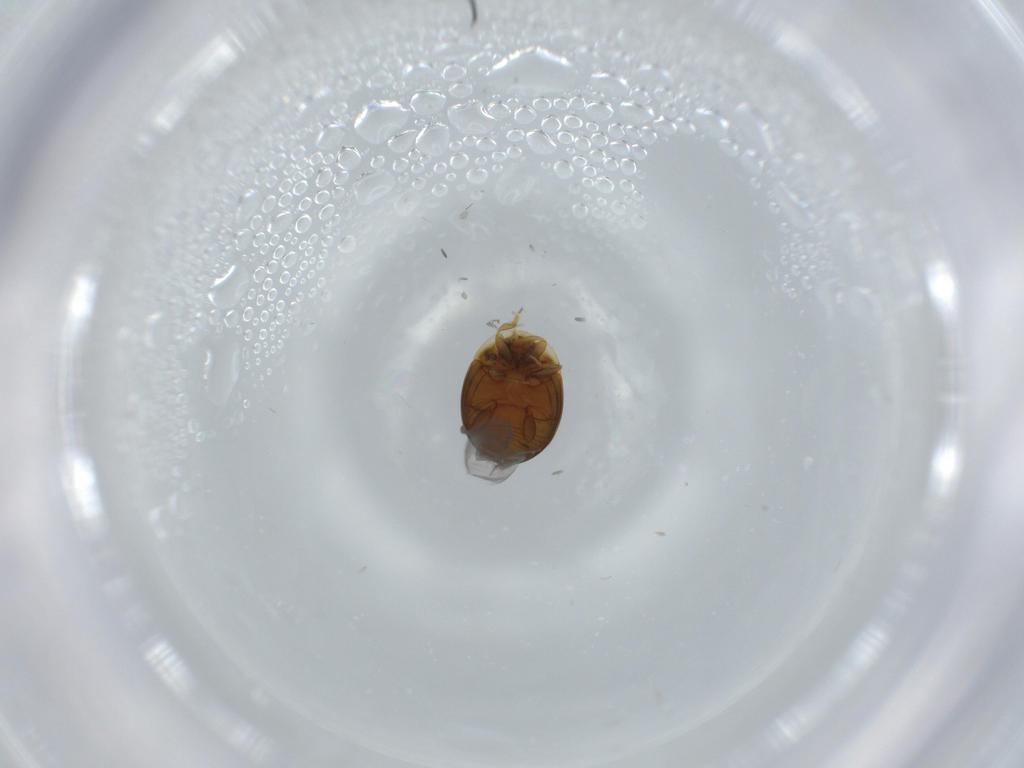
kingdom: Animalia
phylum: Arthropoda
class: Insecta
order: Coleoptera
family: Corylophidae
